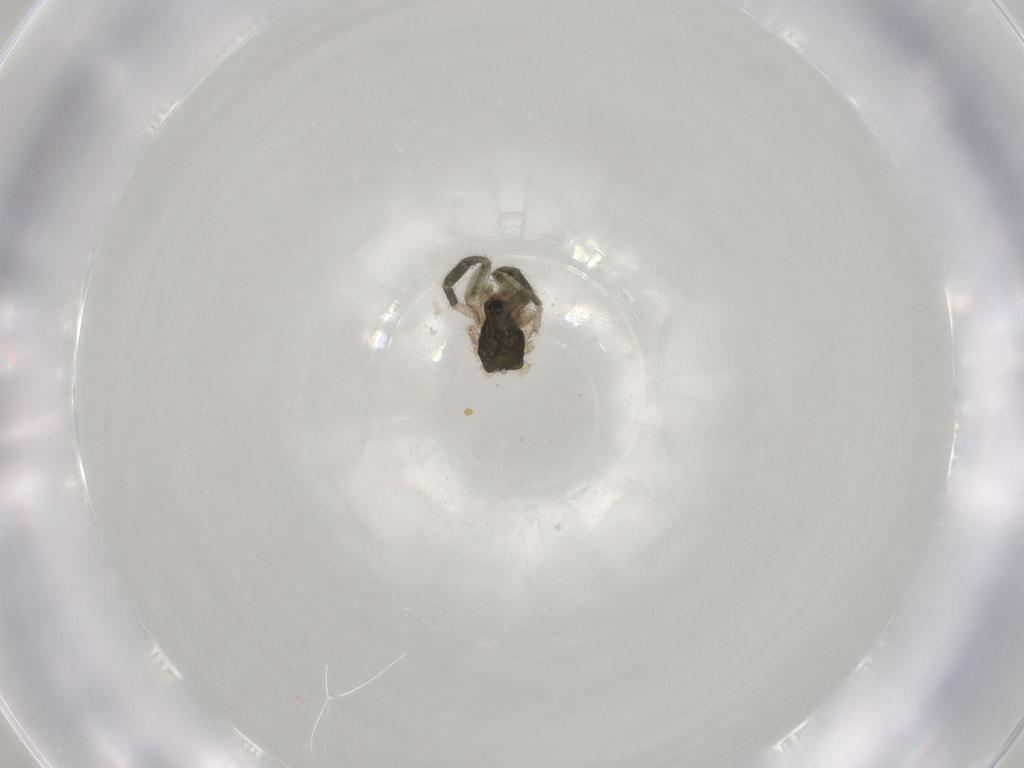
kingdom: Animalia
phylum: Arthropoda
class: Arachnida
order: Araneae
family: Gnaphosidae
